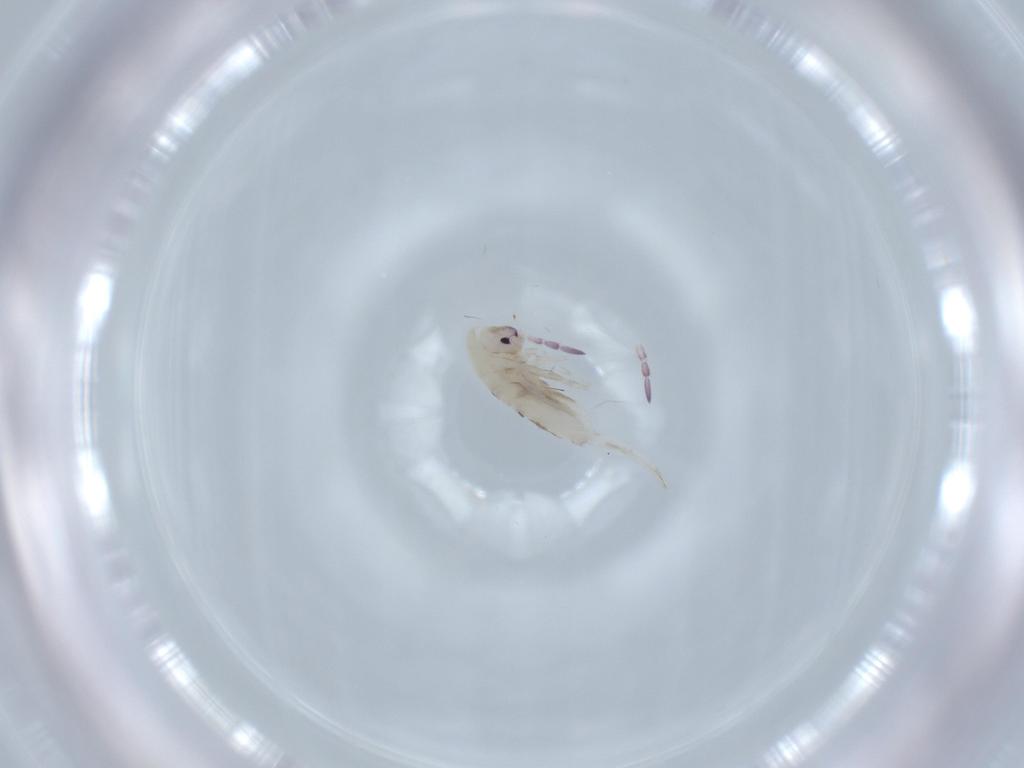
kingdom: Animalia
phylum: Arthropoda
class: Collembola
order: Entomobryomorpha
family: Entomobryidae
